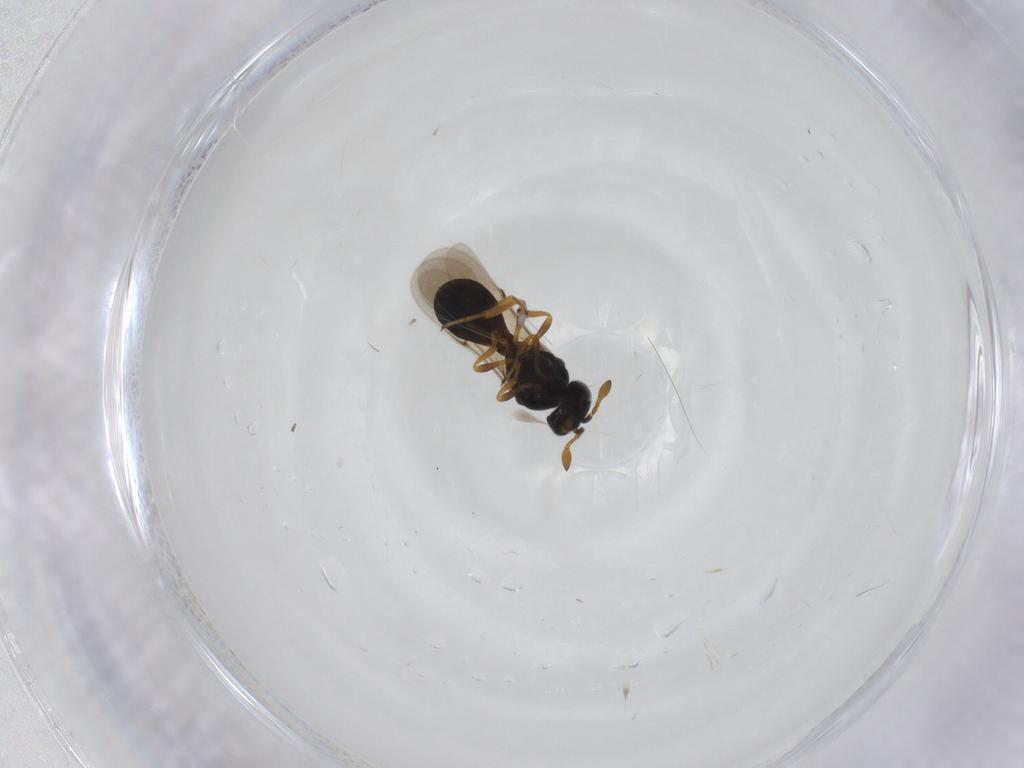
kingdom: Animalia
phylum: Arthropoda
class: Insecta
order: Hymenoptera
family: Scelionidae
